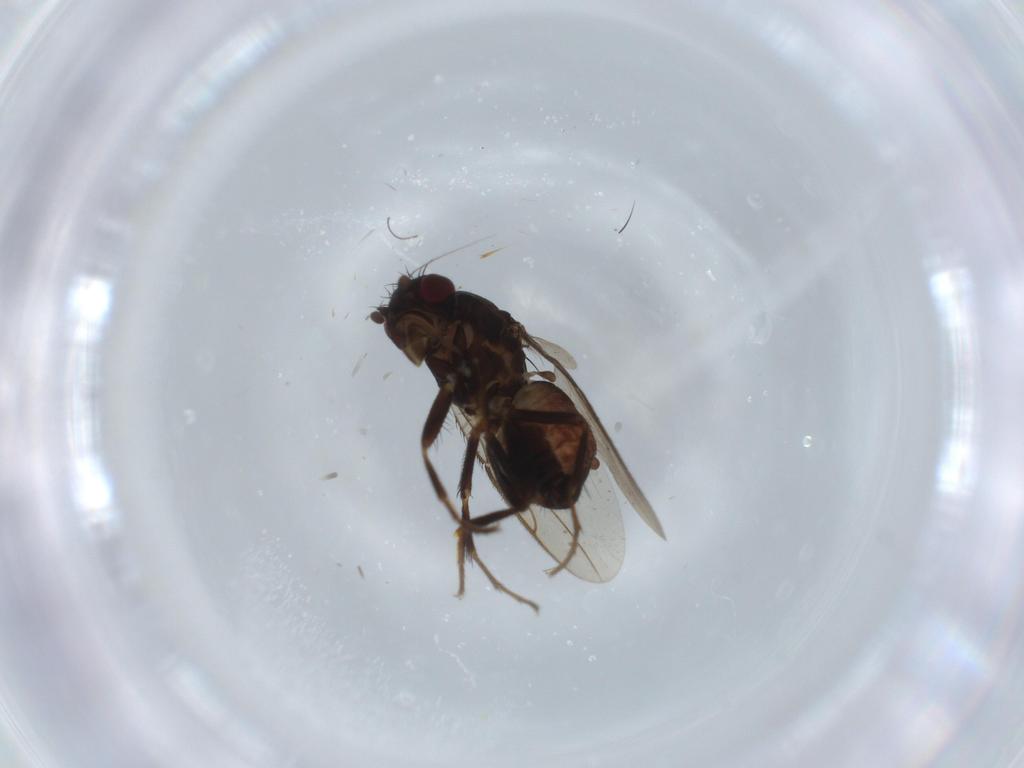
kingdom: Animalia
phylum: Arthropoda
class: Insecta
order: Diptera
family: Sphaeroceridae
